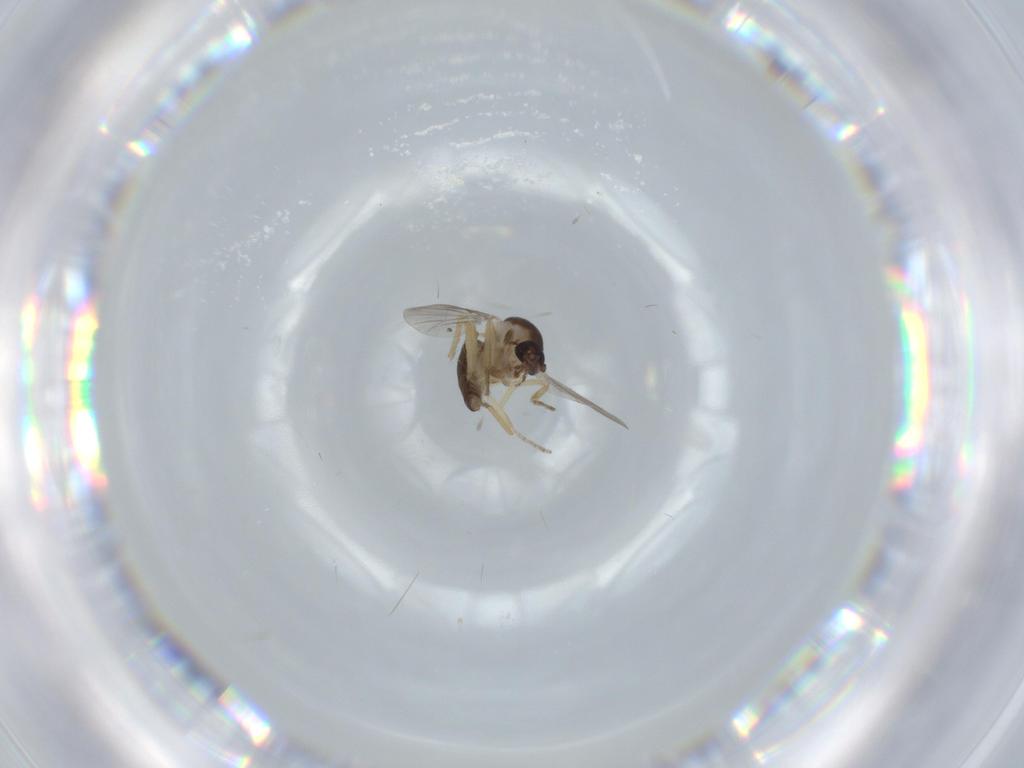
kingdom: Animalia
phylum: Arthropoda
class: Insecta
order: Diptera
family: Ceratopogonidae
